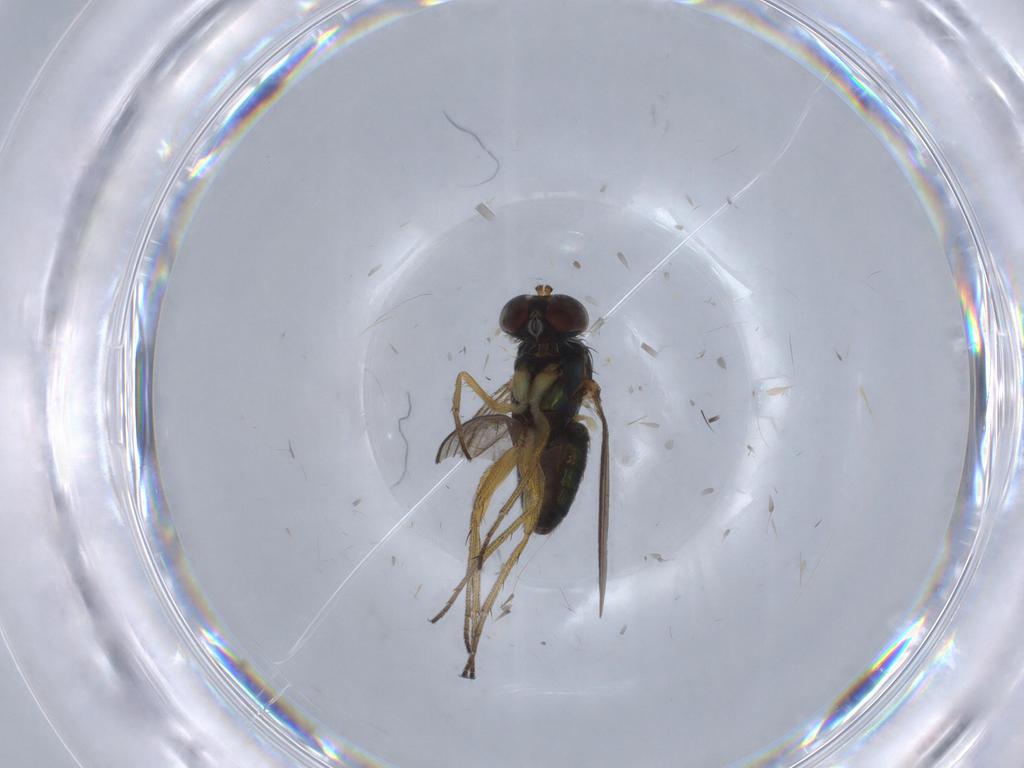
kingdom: Animalia
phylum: Arthropoda
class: Insecta
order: Diptera
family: Dolichopodidae
